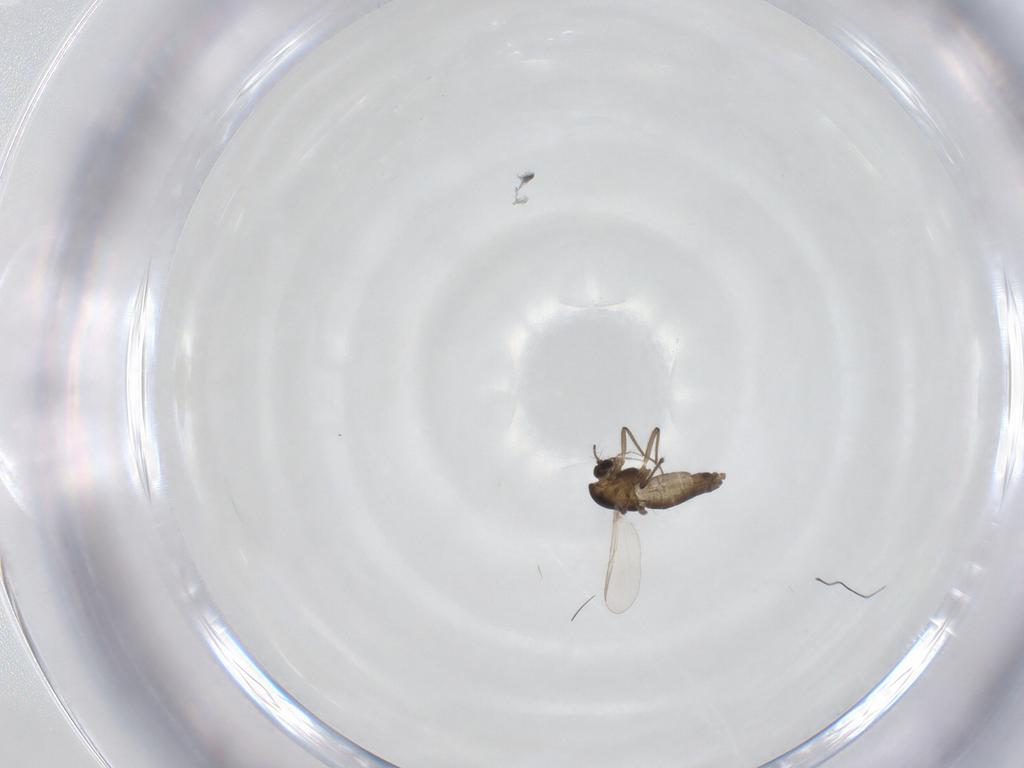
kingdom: Animalia
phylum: Arthropoda
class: Insecta
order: Diptera
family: Chironomidae
